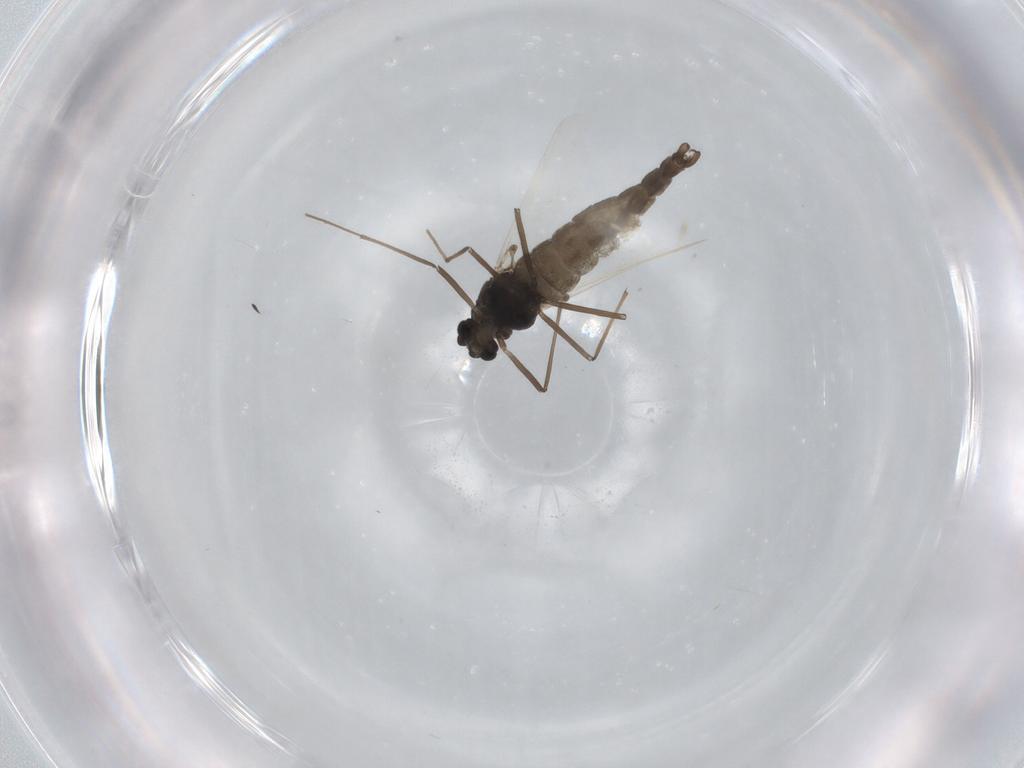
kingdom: Animalia
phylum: Arthropoda
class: Insecta
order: Diptera
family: Chironomidae
